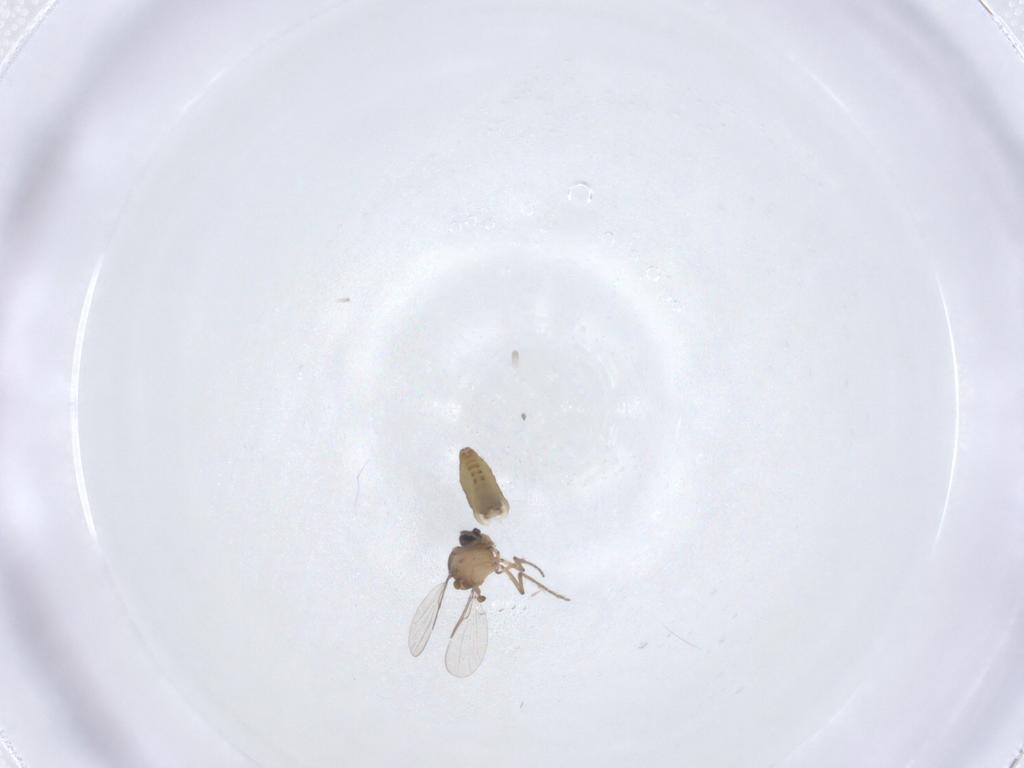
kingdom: Animalia
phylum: Arthropoda
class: Insecta
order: Diptera
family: Ceratopogonidae
